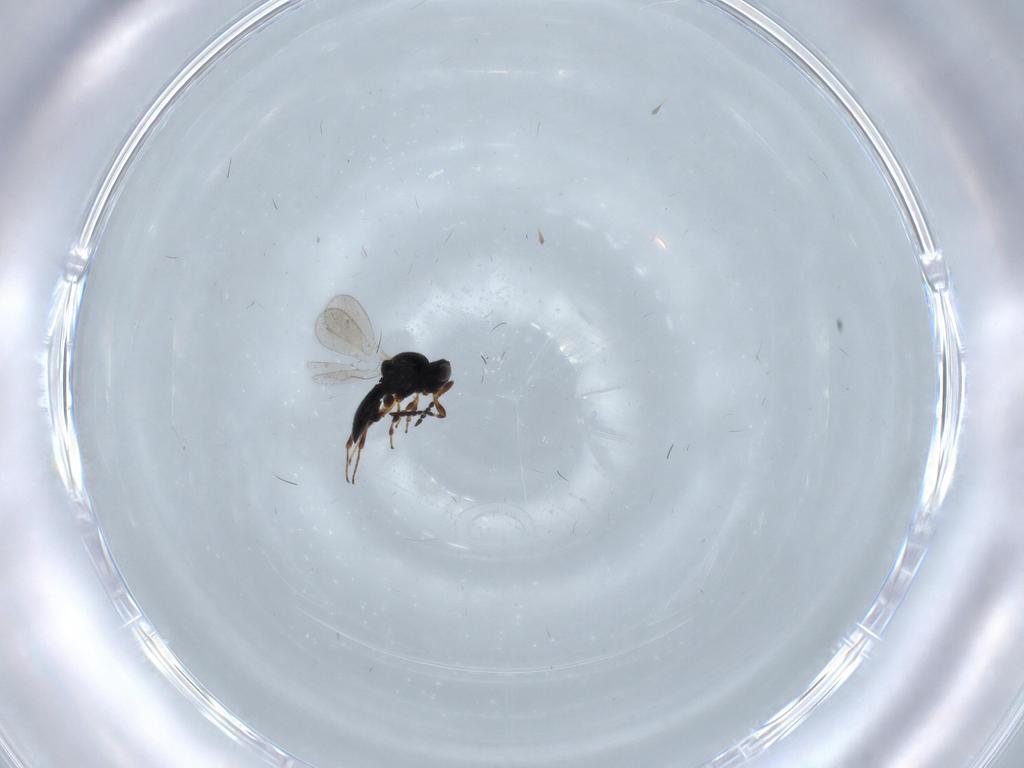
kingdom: Animalia
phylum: Arthropoda
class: Insecta
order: Hymenoptera
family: Platygastridae
